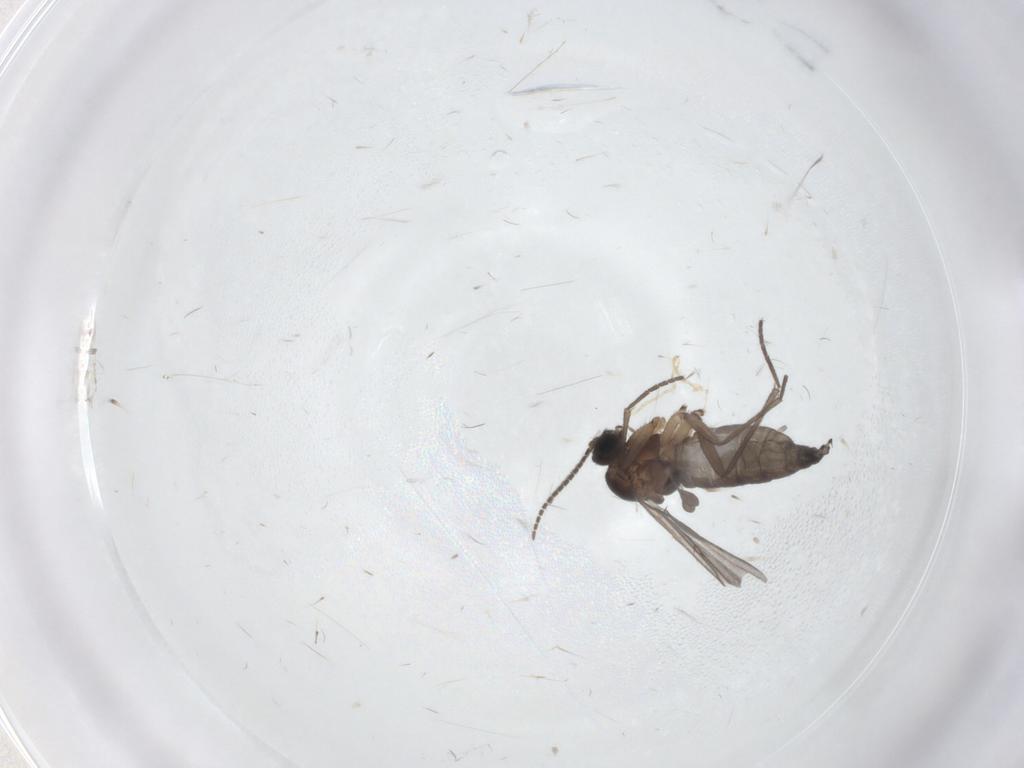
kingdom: Animalia
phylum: Arthropoda
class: Insecta
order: Diptera
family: Sciaridae
